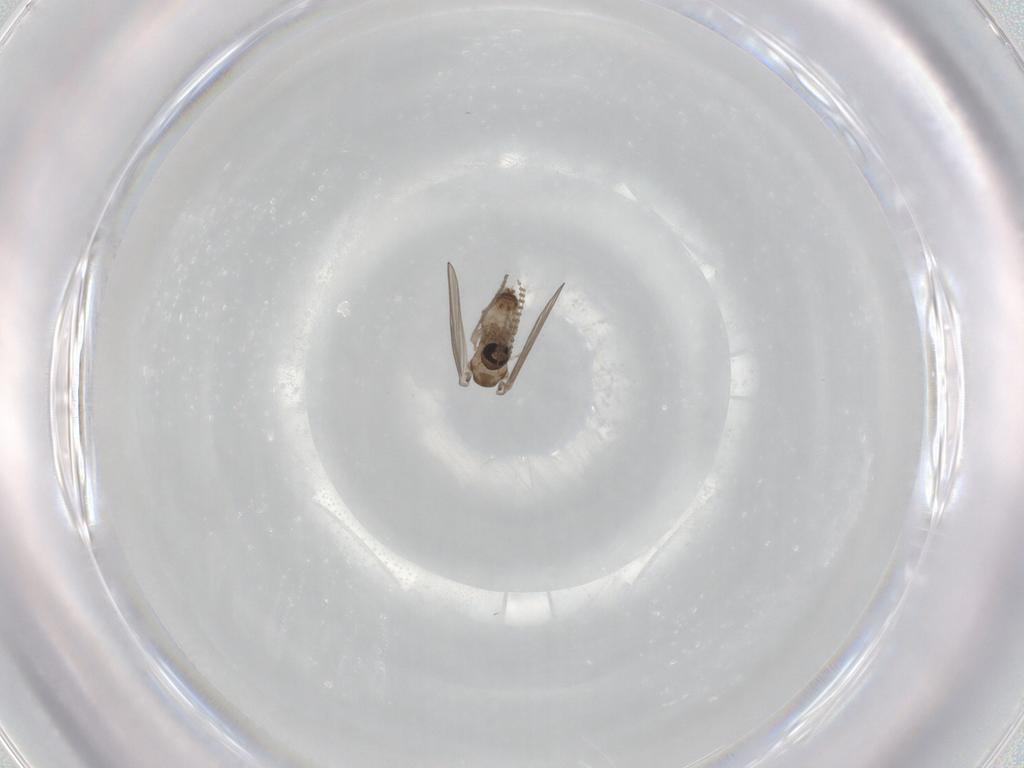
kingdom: Animalia
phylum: Arthropoda
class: Insecta
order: Diptera
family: Psychodidae
